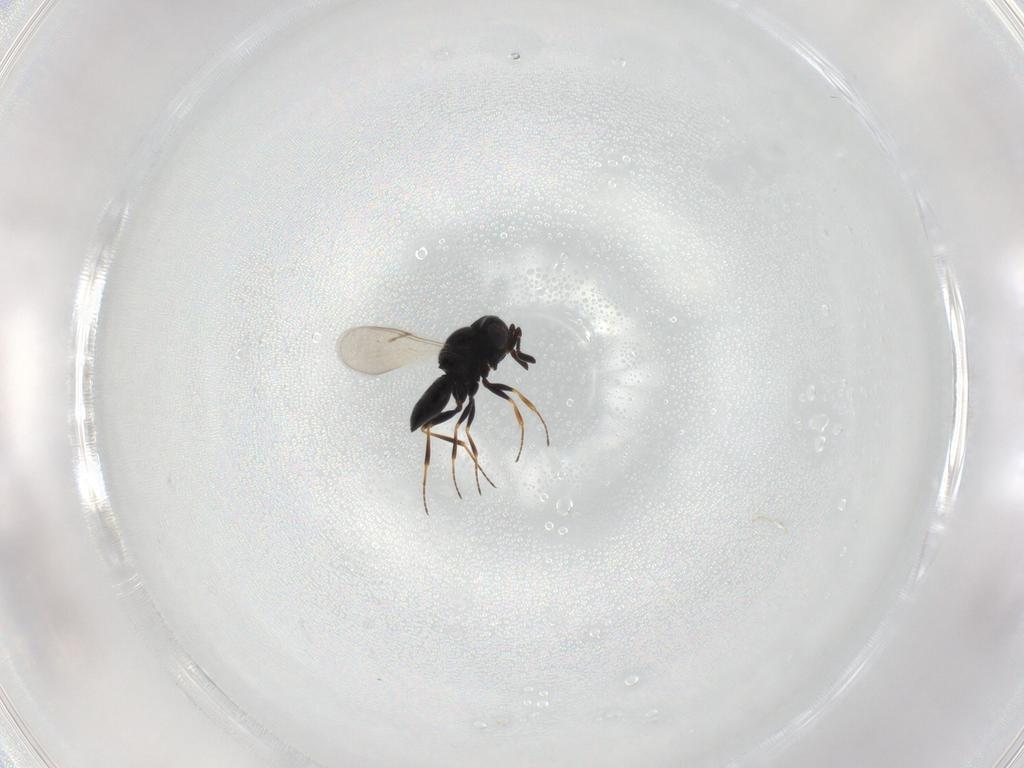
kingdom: Animalia
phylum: Arthropoda
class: Insecta
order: Hymenoptera
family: Scelionidae
